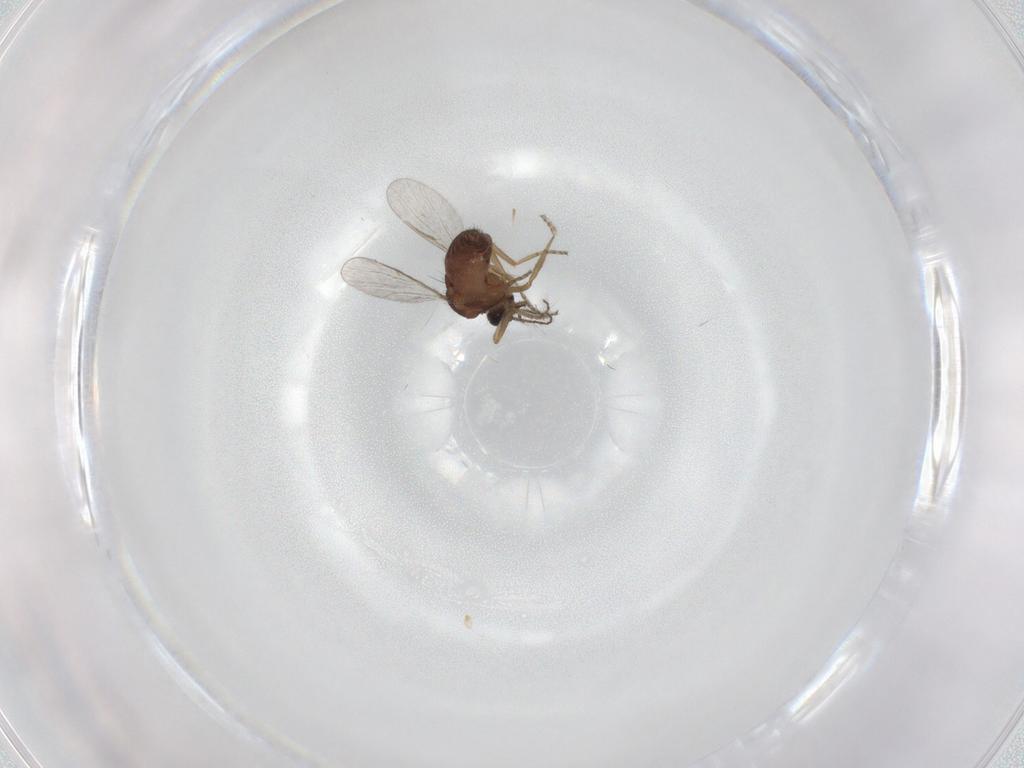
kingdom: Animalia
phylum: Arthropoda
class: Insecta
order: Diptera
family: Ceratopogonidae
